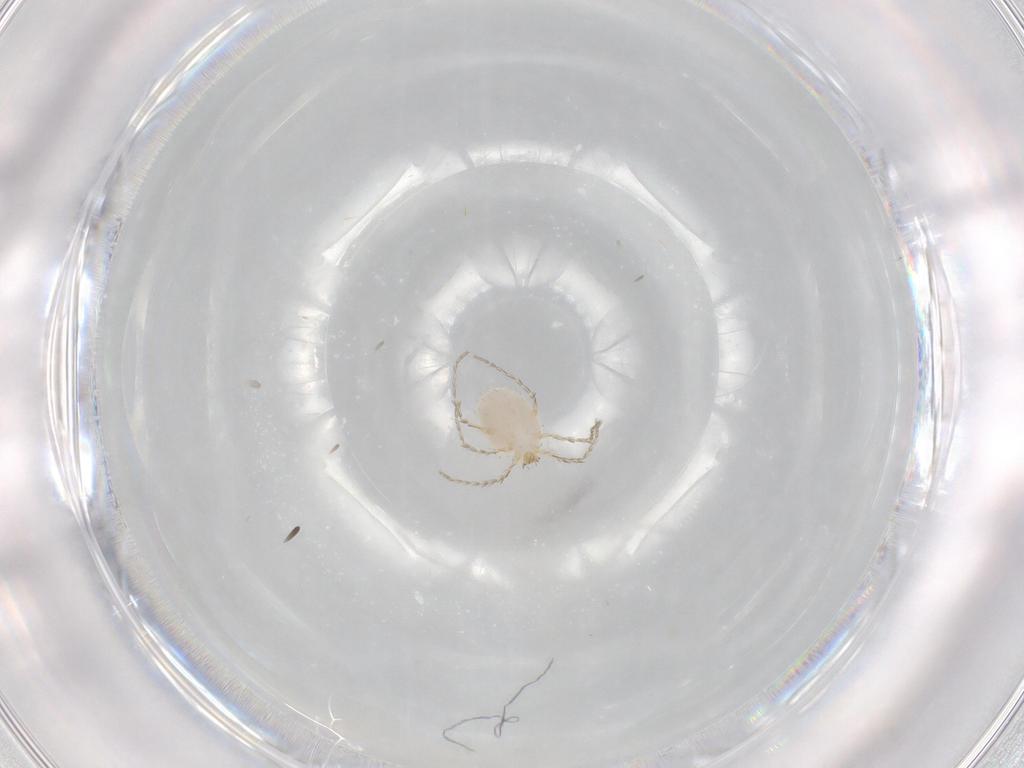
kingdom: Animalia
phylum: Arthropoda
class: Arachnida
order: Trombidiformes
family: Erythraeidae
